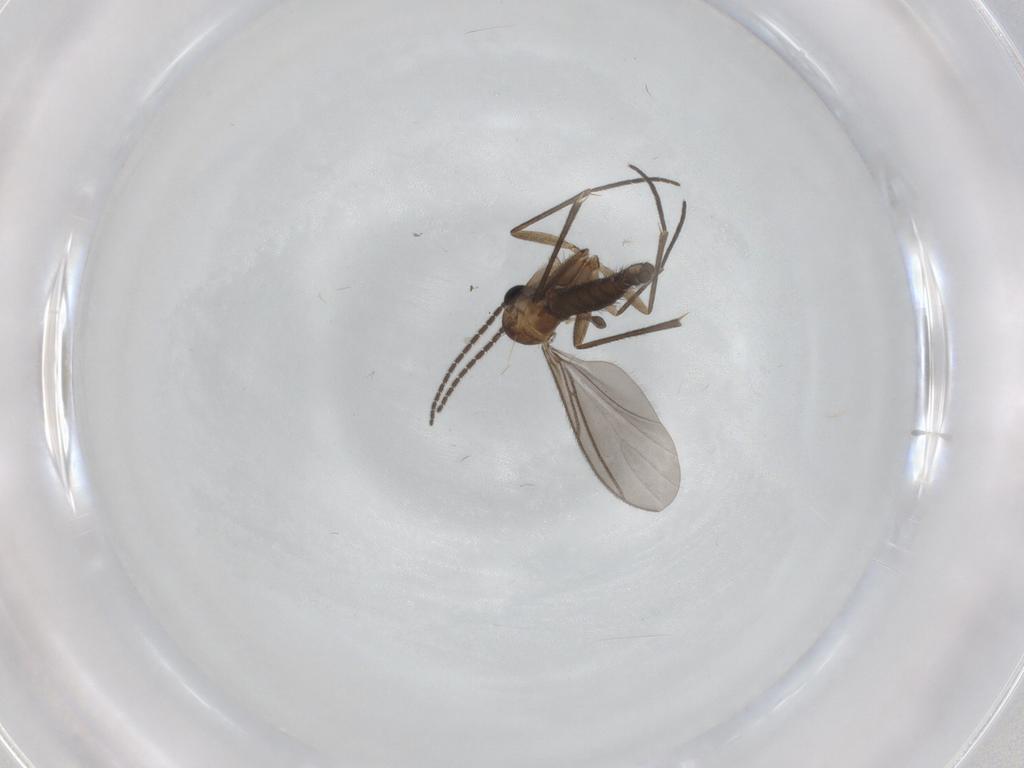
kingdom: Animalia
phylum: Arthropoda
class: Insecta
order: Diptera
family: Sciaridae
